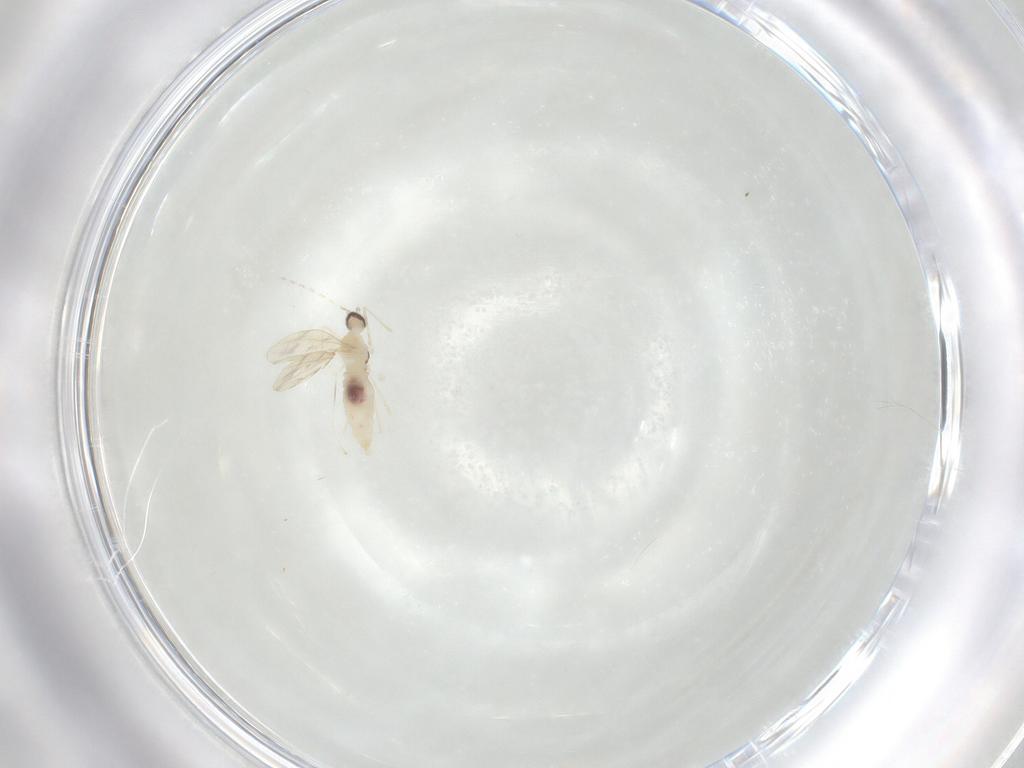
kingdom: Animalia
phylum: Arthropoda
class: Insecta
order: Diptera
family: Cecidomyiidae
